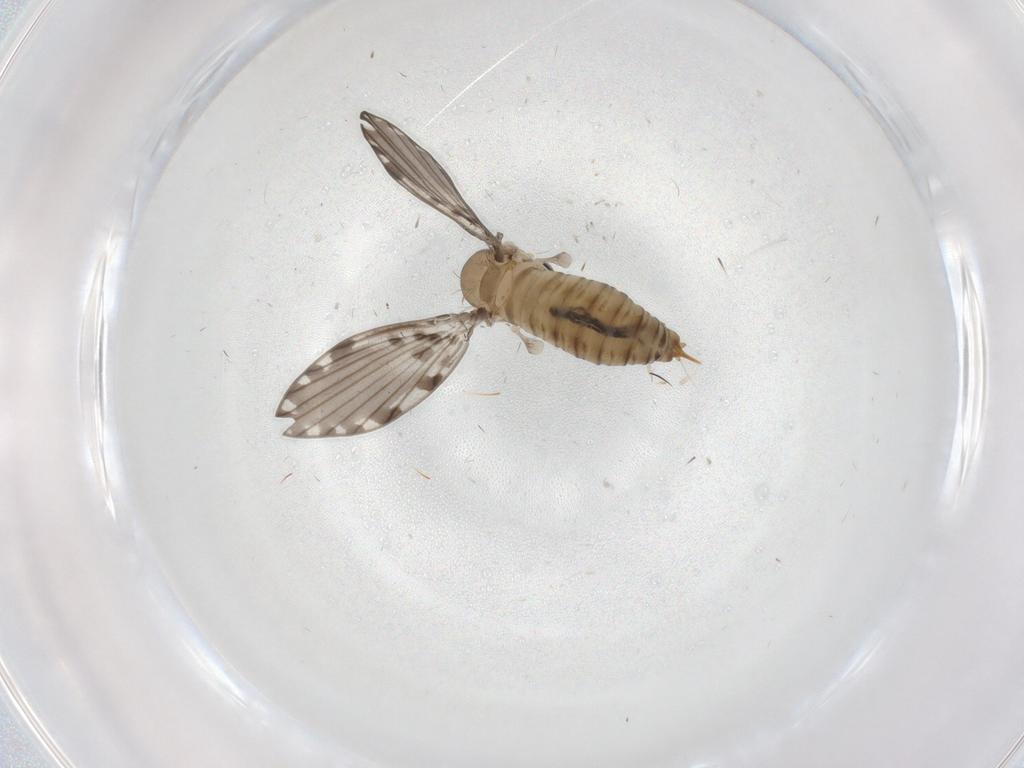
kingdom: Animalia
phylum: Arthropoda
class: Insecta
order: Diptera
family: Psychodidae
